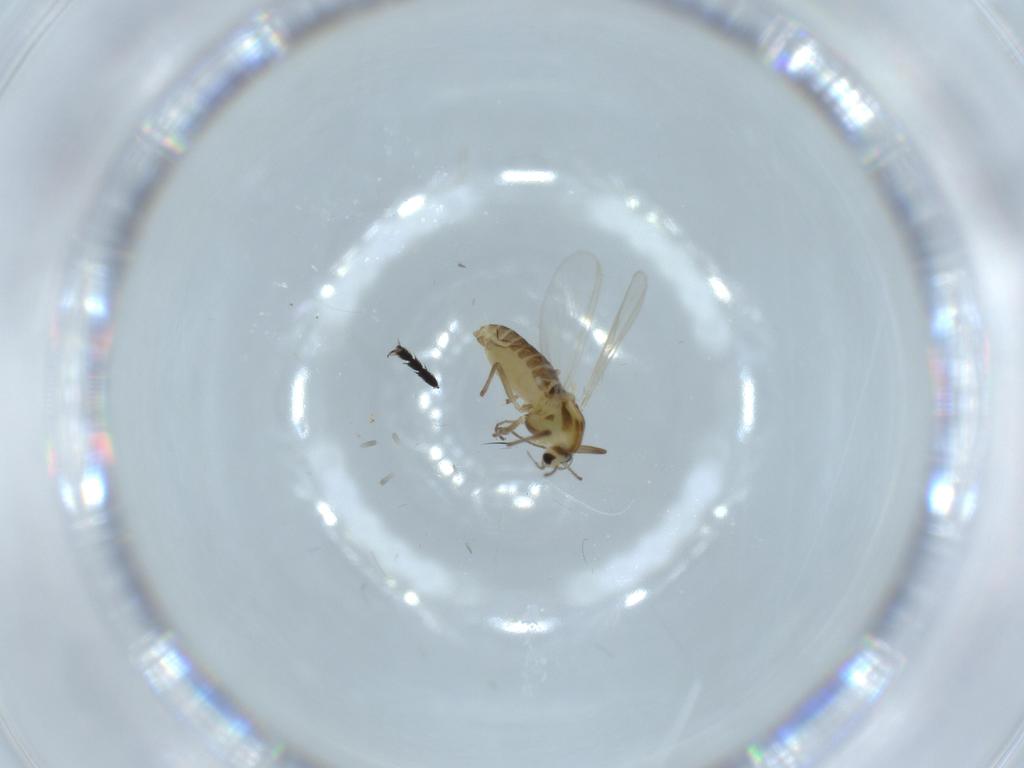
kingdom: Animalia
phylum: Arthropoda
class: Insecta
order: Diptera
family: Chironomidae
